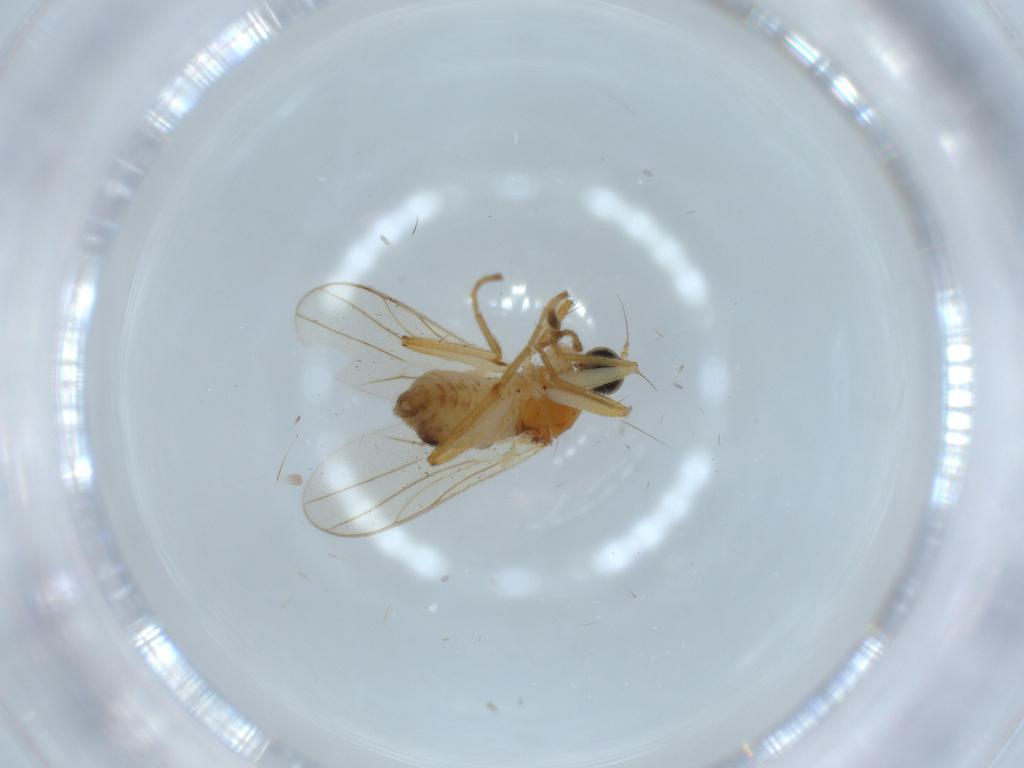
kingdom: Animalia
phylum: Arthropoda
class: Insecta
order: Diptera
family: Hybotidae
